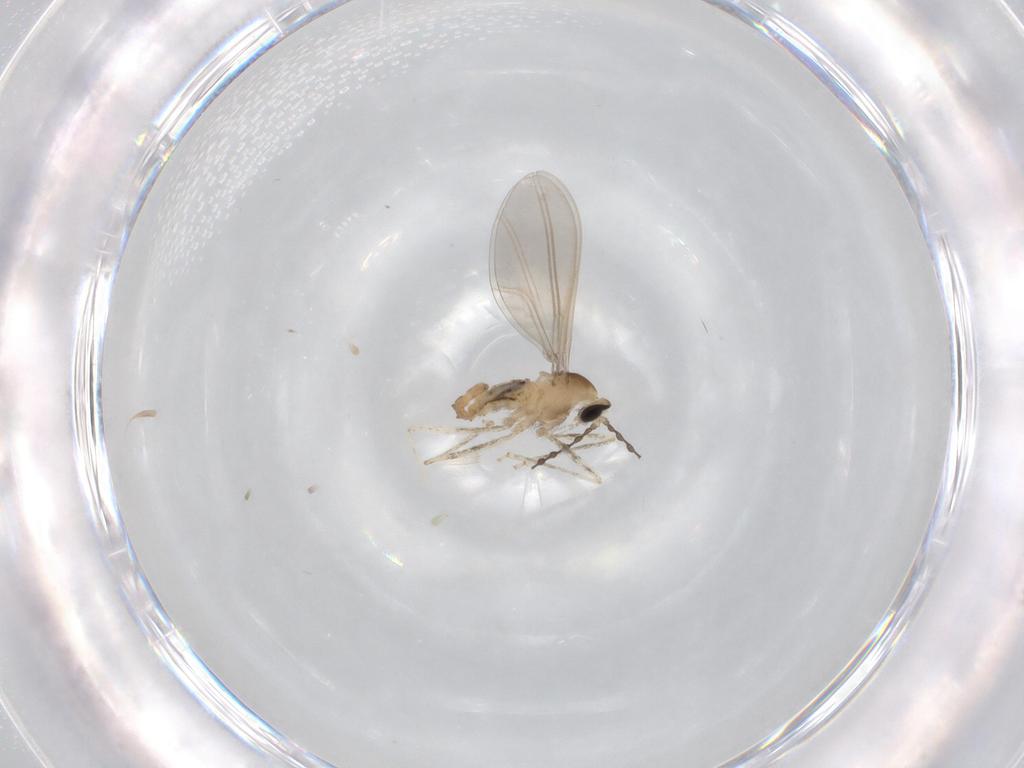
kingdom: Animalia
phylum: Arthropoda
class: Insecta
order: Diptera
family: Cecidomyiidae
